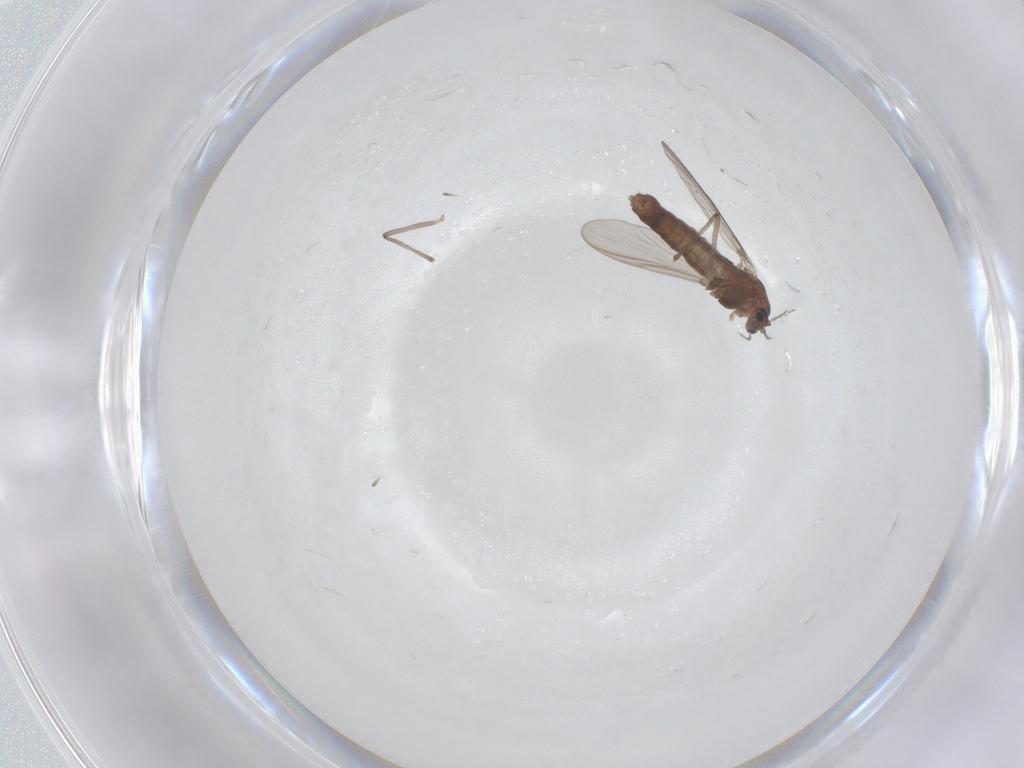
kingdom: Animalia
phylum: Arthropoda
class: Insecta
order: Diptera
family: Chironomidae
